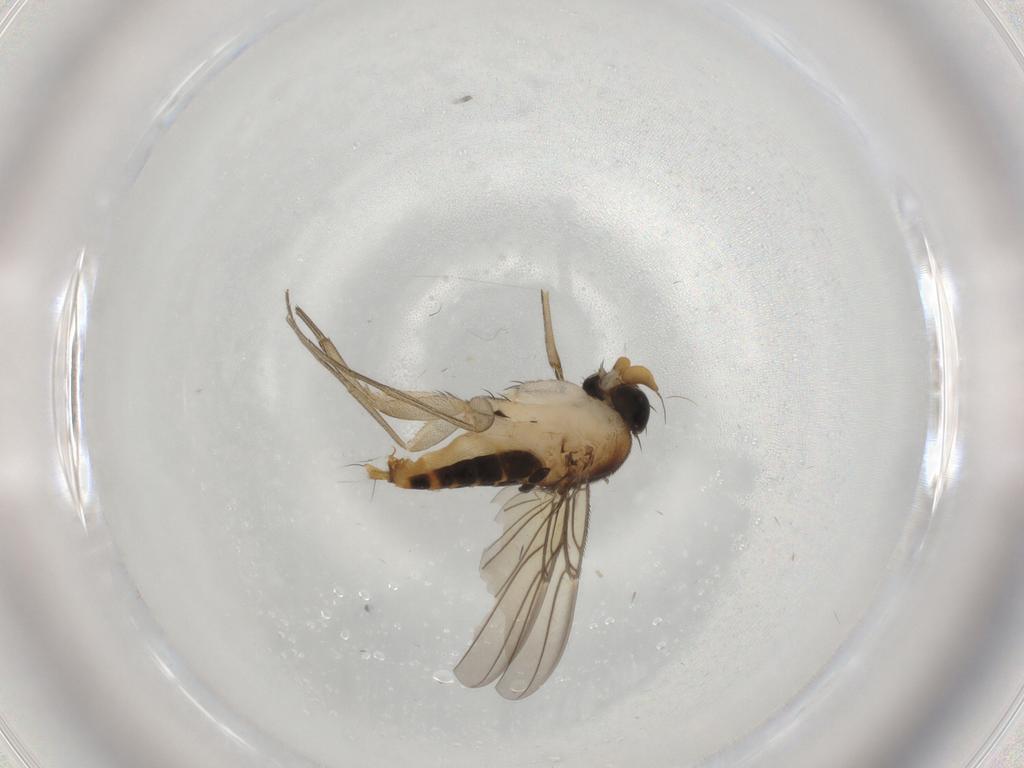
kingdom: Animalia
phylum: Arthropoda
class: Insecta
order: Diptera
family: Phoridae
